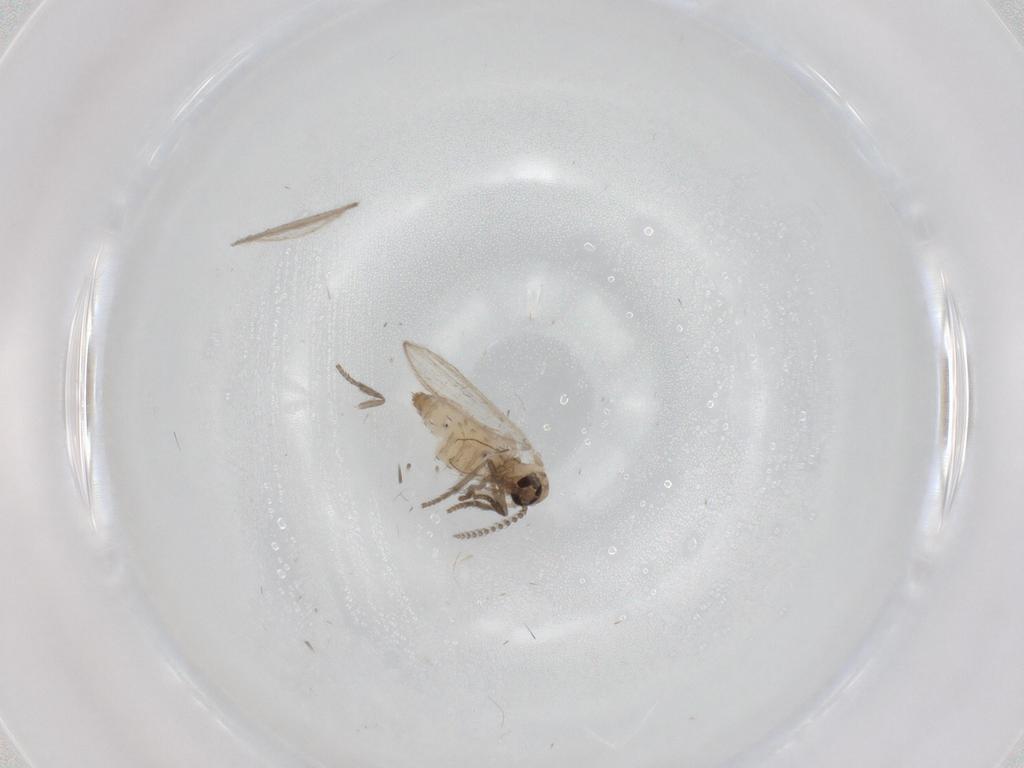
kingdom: Animalia
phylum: Arthropoda
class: Insecta
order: Diptera
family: Psychodidae
